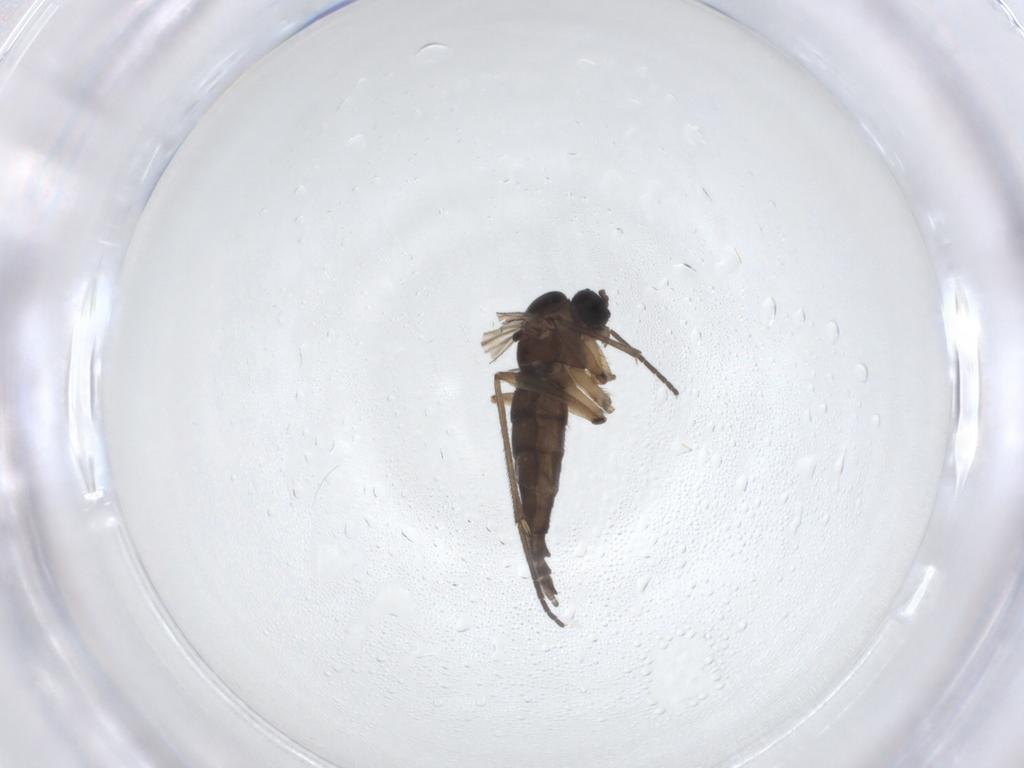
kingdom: Animalia
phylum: Arthropoda
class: Insecta
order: Diptera
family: Sciaridae
